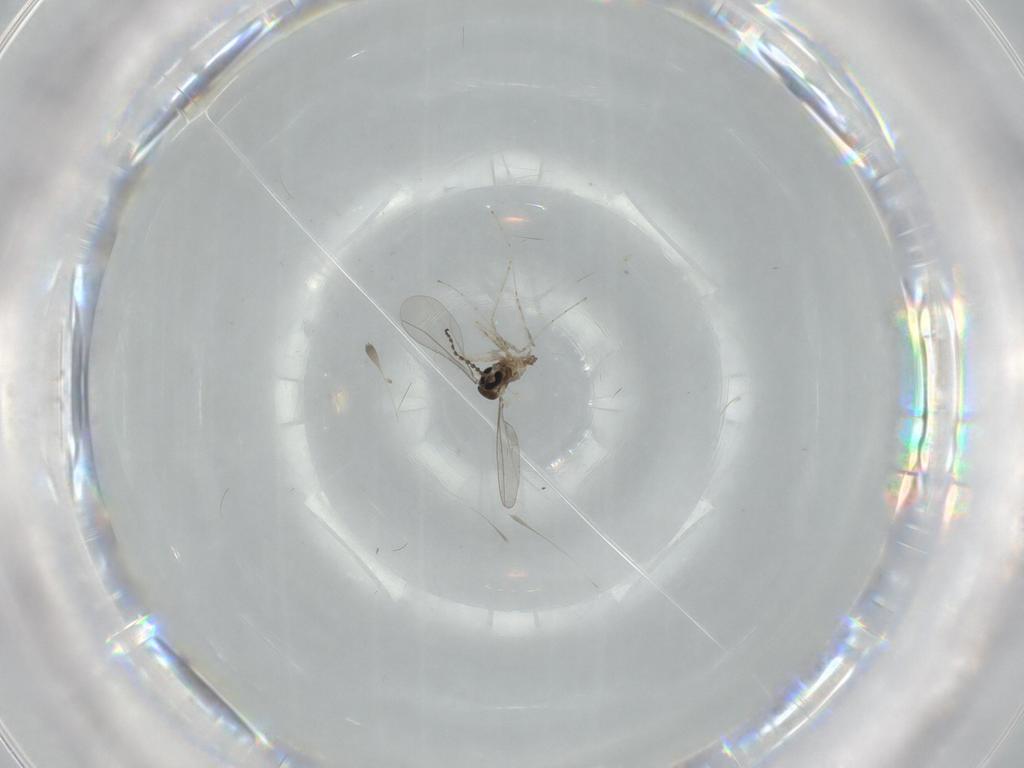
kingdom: Animalia
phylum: Arthropoda
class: Insecta
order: Diptera
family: Cecidomyiidae
